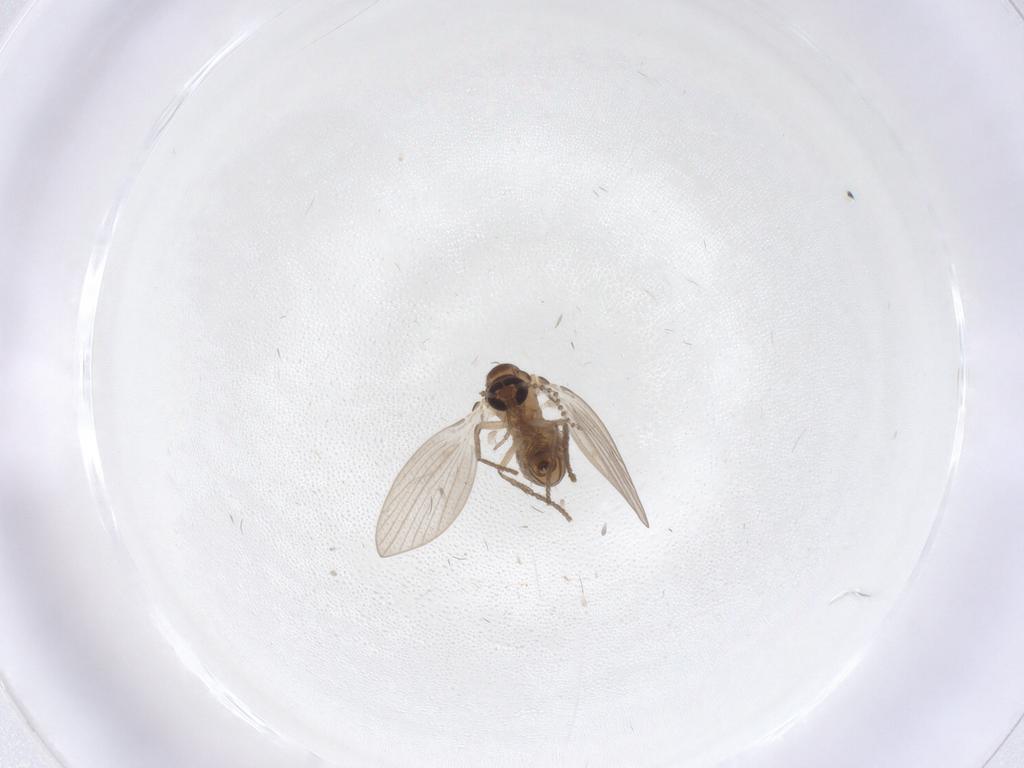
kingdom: Animalia
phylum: Arthropoda
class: Insecta
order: Diptera
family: Psychodidae
